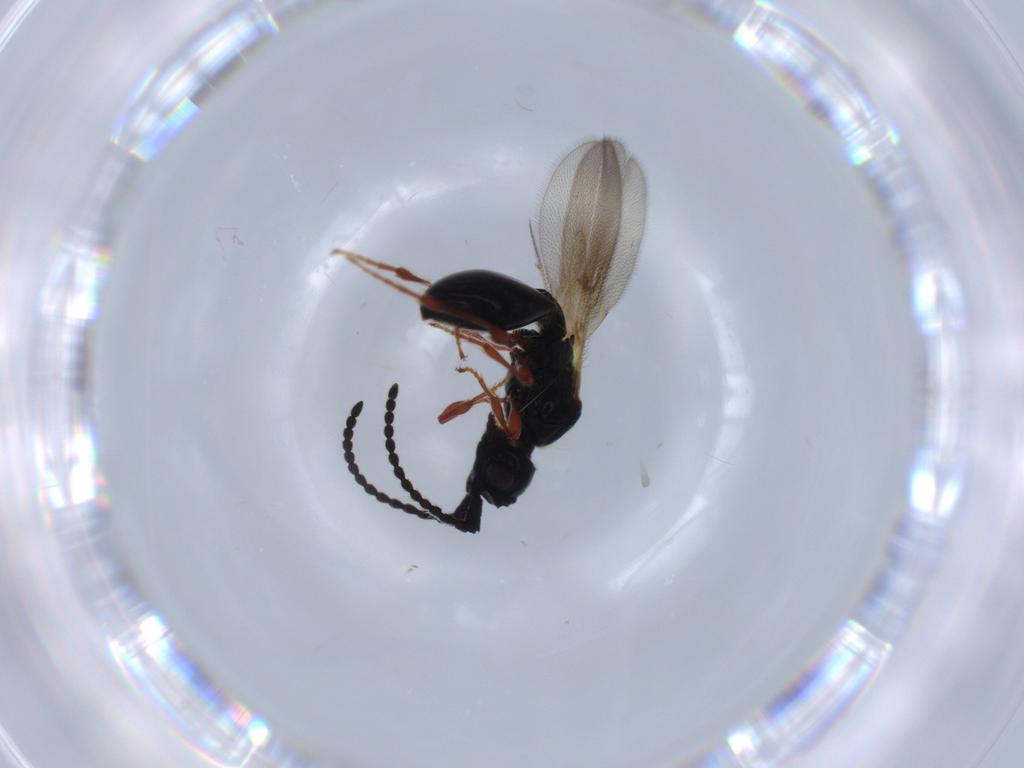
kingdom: Animalia
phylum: Arthropoda
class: Insecta
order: Hymenoptera
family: Diapriidae
